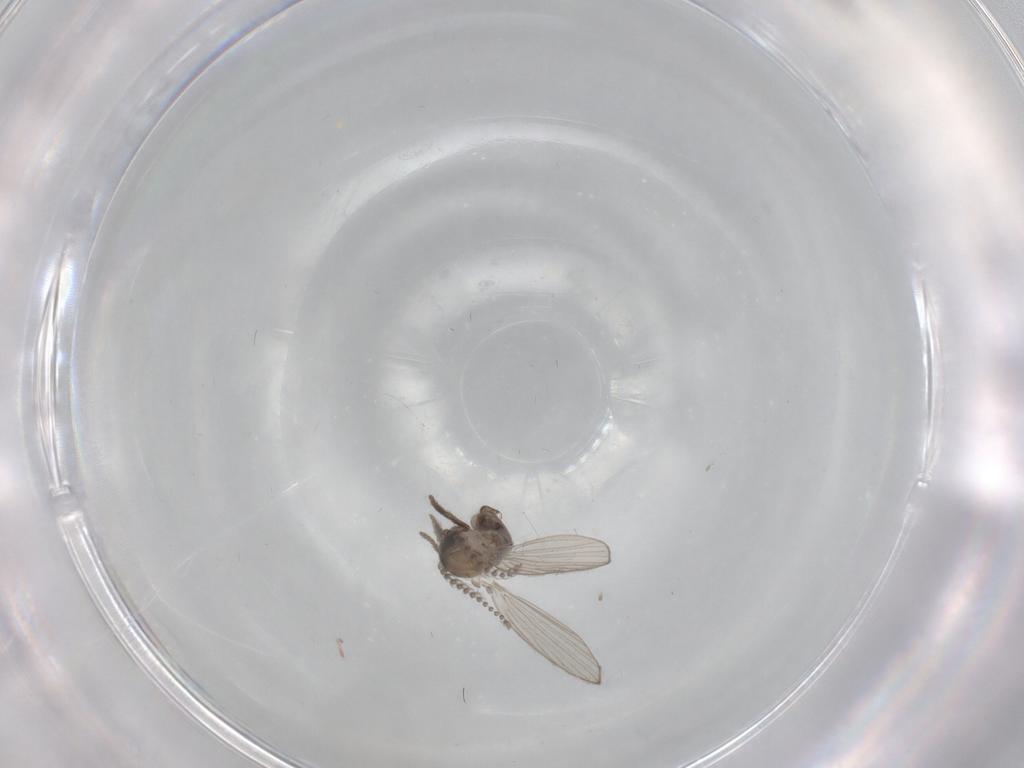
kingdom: Animalia
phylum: Arthropoda
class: Insecta
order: Diptera
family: Psychodidae
